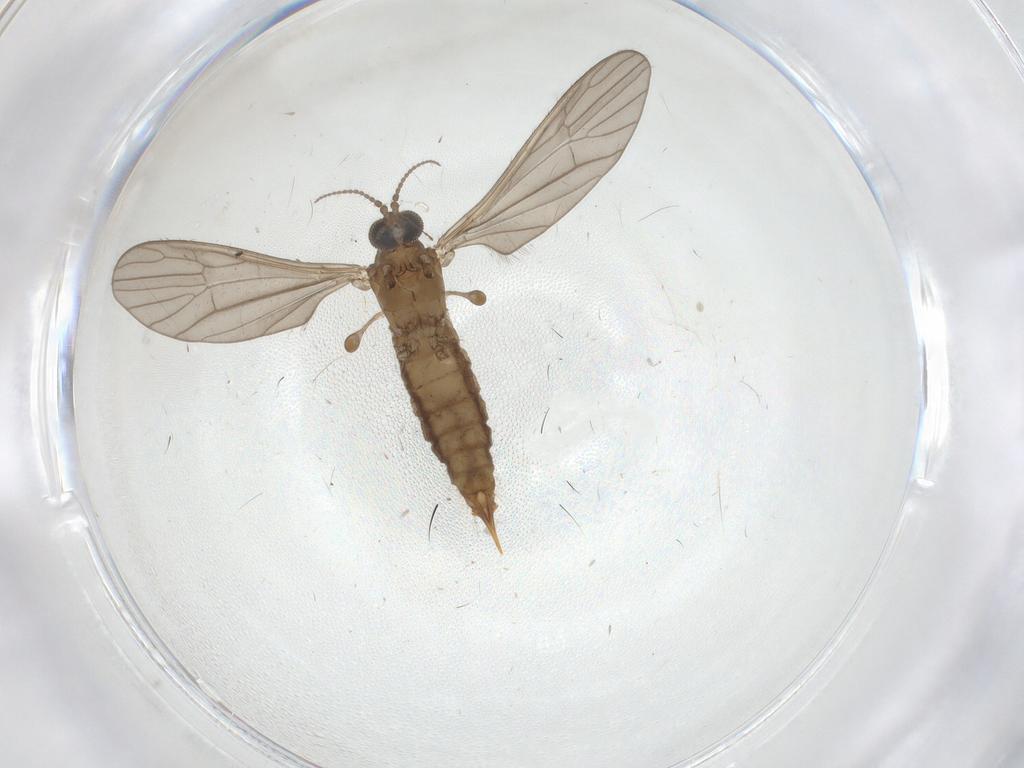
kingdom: Animalia
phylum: Arthropoda
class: Insecta
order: Diptera
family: Limoniidae
